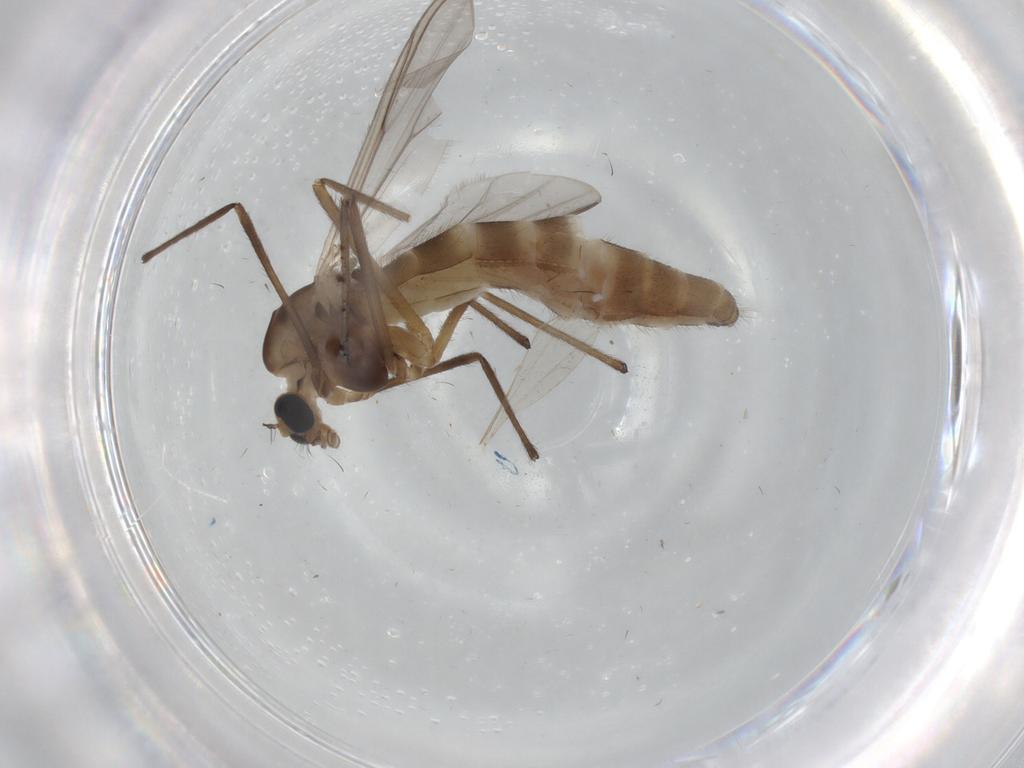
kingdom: Animalia
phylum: Arthropoda
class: Insecta
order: Diptera
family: Chironomidae
